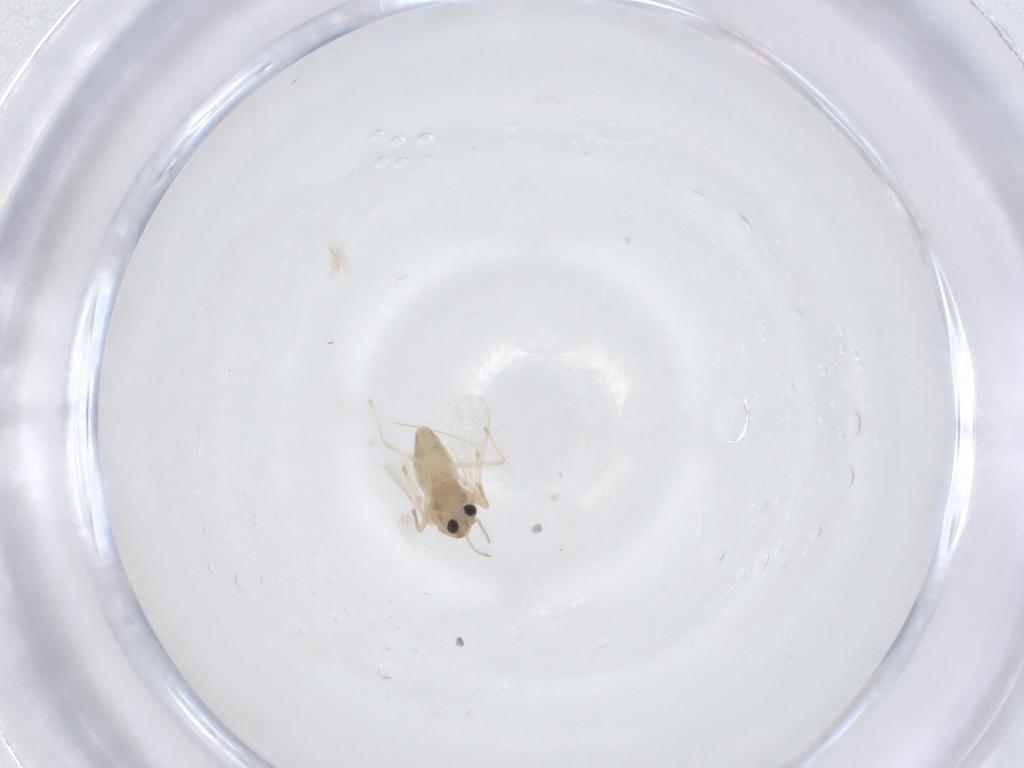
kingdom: Animalia
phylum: Arthropoda
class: Insecta
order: Diptera
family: Chironomidae
